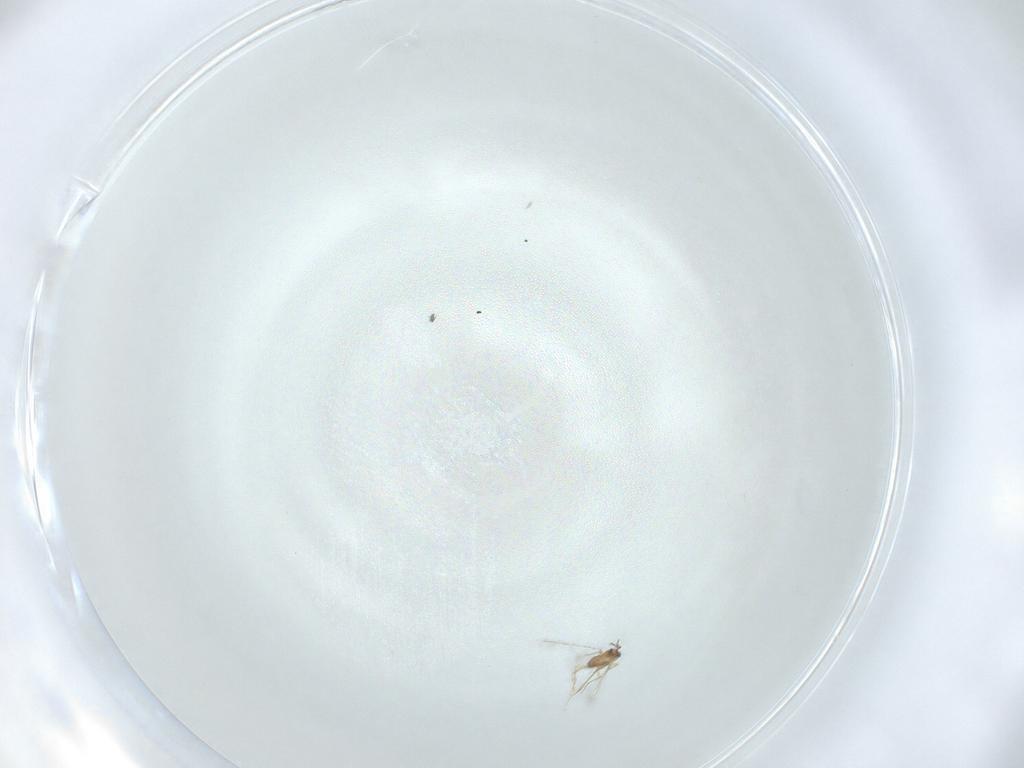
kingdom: Animalia
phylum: Arthropoda
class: Insecta
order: Hymenoptera
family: Mymaridae
